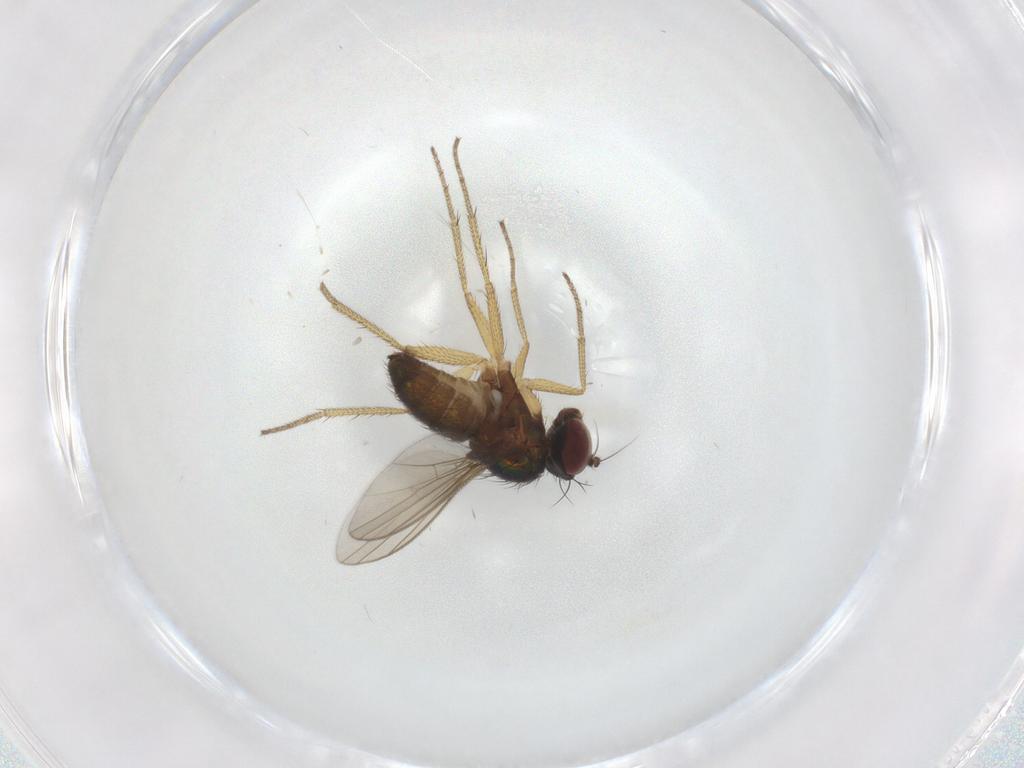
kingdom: Animalia
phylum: Arthropoda
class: Insecta
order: Diptera
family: Dolichopodidae
